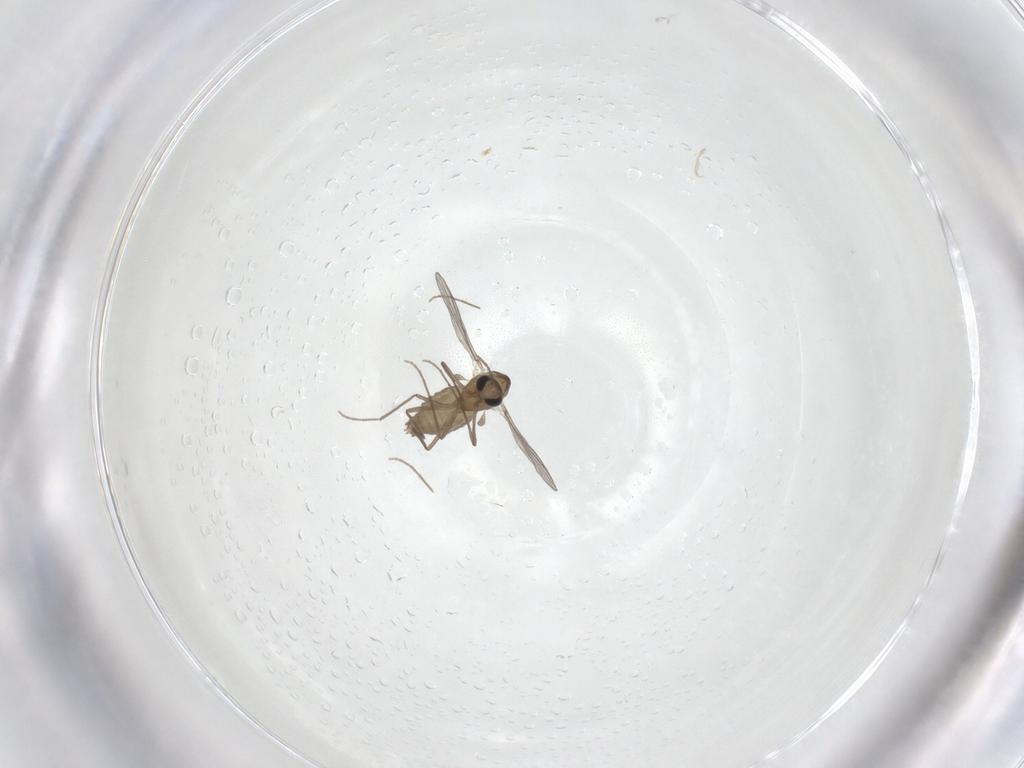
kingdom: Animalia
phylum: Arthropoda
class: Insecta
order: Diptera
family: Chironomidae
